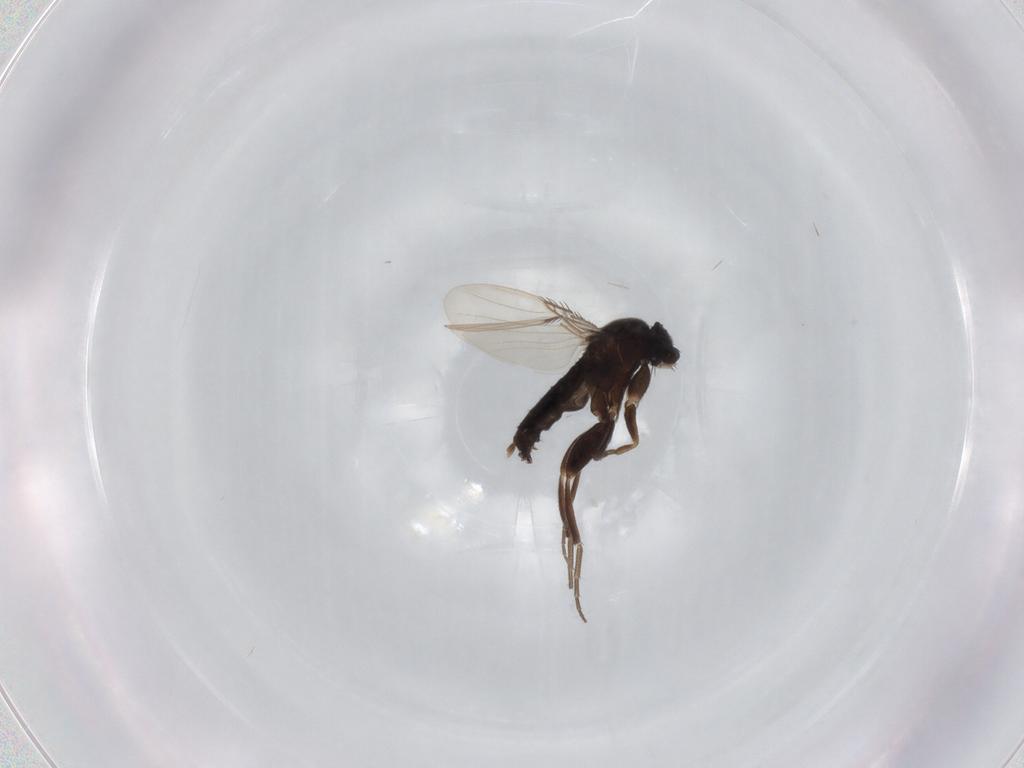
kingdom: Animalia
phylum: Arthropoda
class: Insecta
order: Diptera
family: Phoridae
